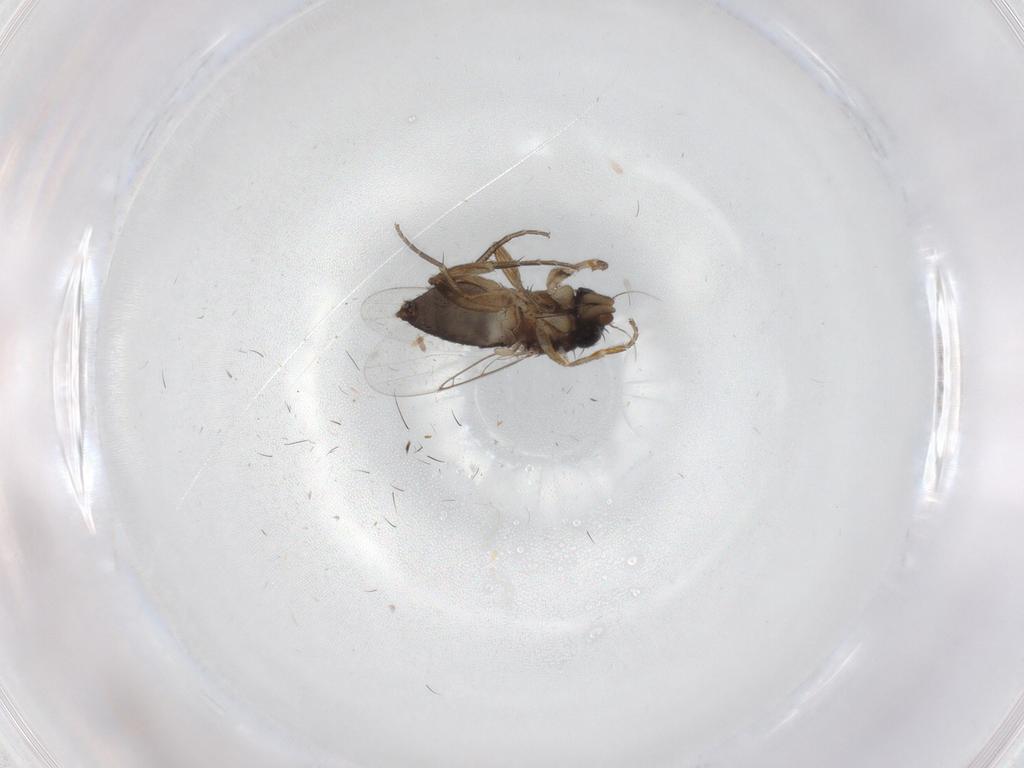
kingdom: Animalia
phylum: Arthropoda
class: Insecta
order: Diptera
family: Phoridae
